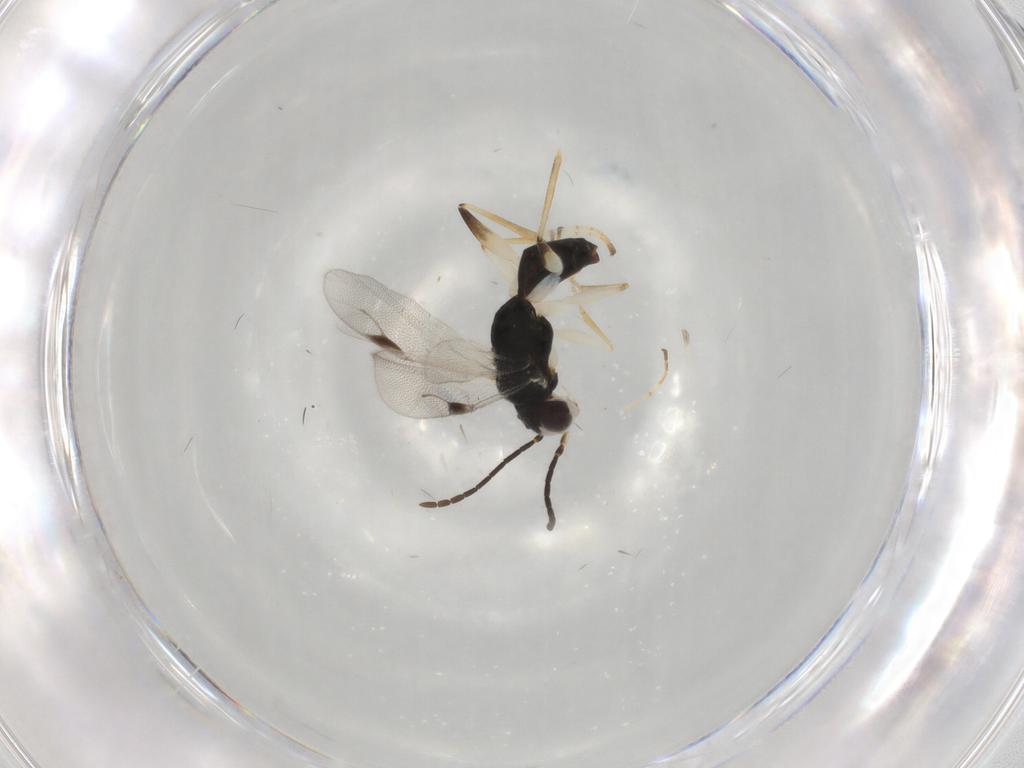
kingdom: Animalia
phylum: Arthropoda
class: Insecta
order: Hymenoptera
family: Dryinidae
